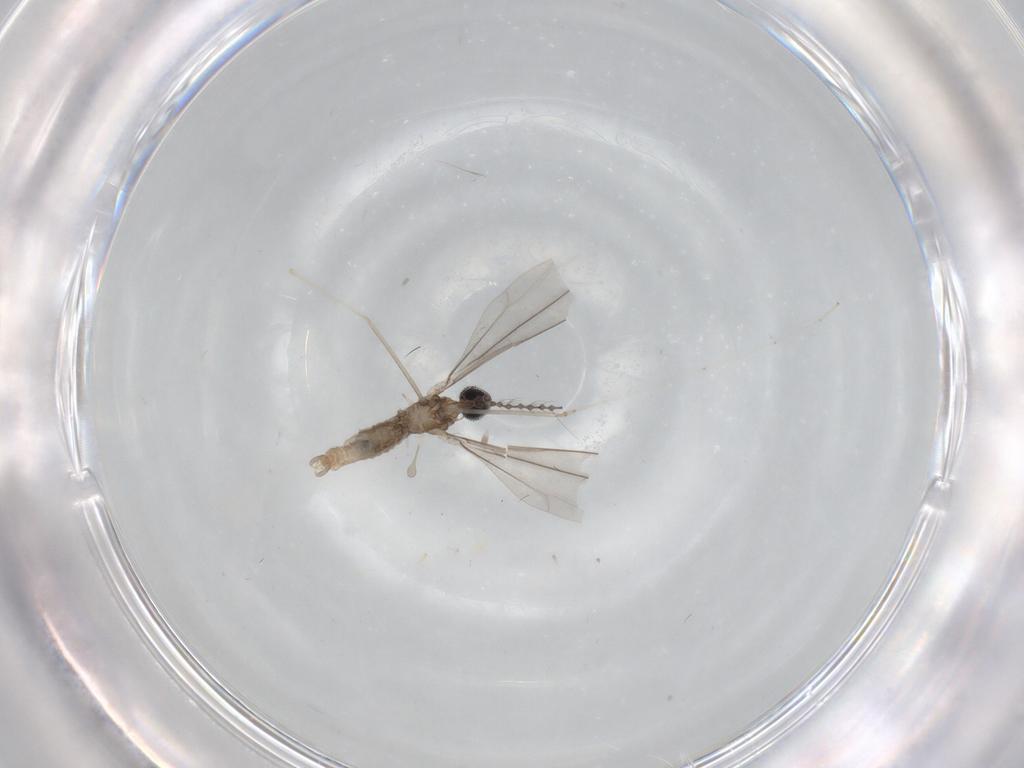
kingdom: Animalia
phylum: Arthropoda
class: Insecta
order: Diptera
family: Cecidomyiidae
